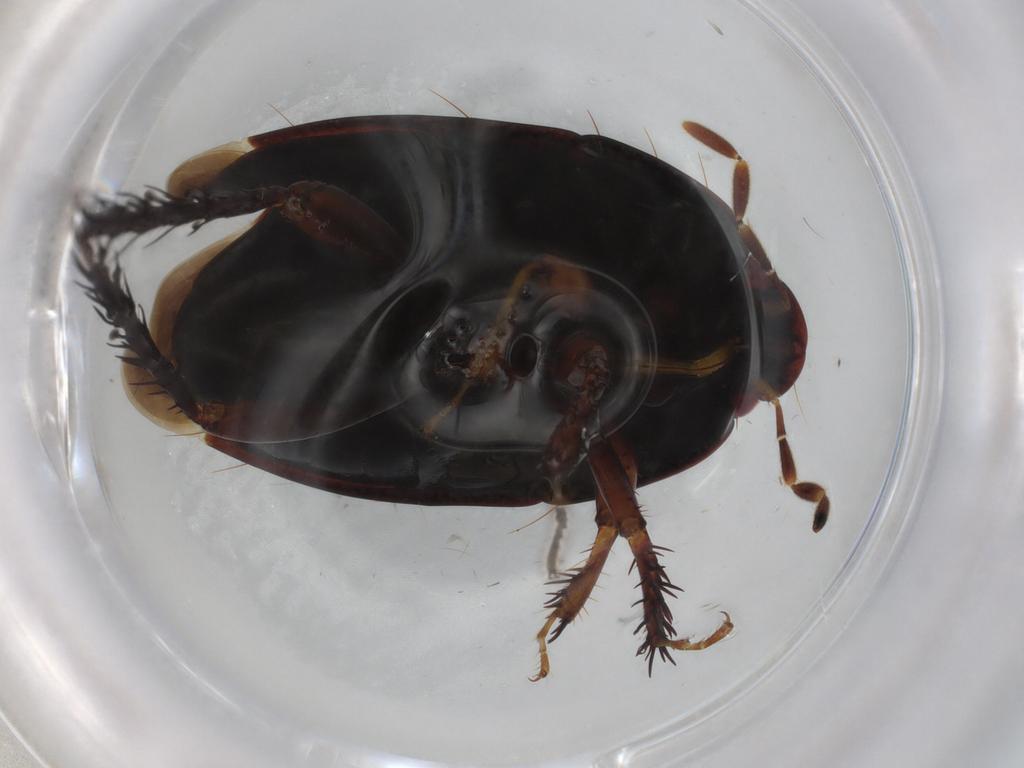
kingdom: Animalia
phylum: Arthropoda
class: Insecta
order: Hemiptera
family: Cydnidae
